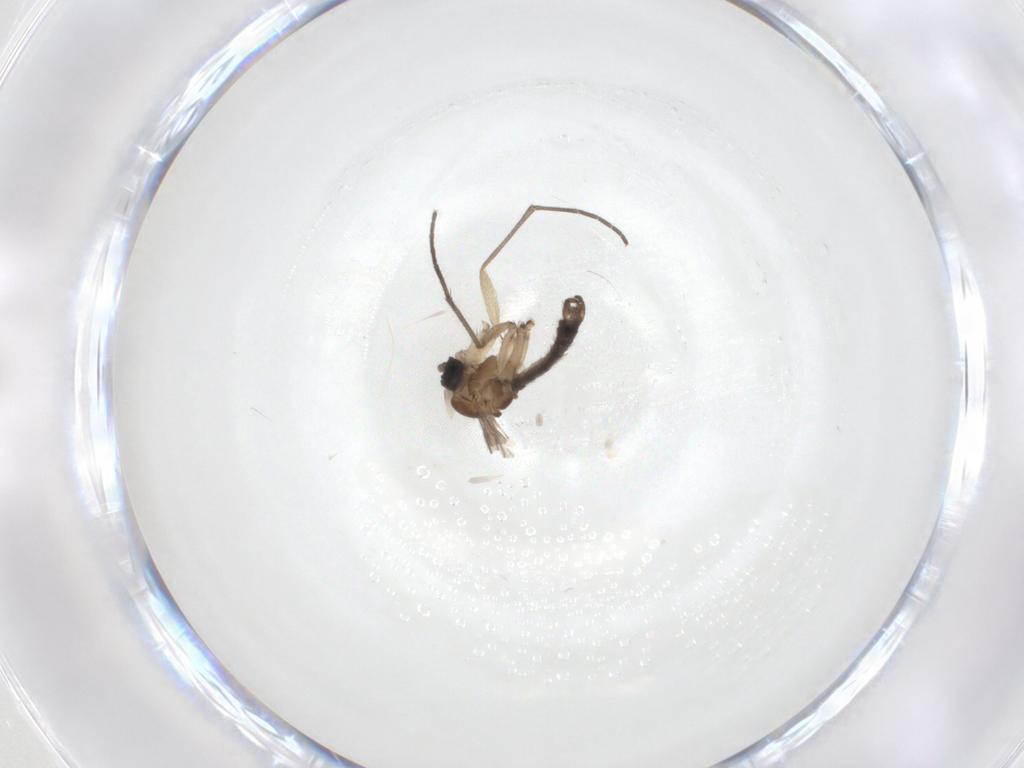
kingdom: Animalia
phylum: Arthropoda
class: Insecta
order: Diptera
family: Sciaridae
